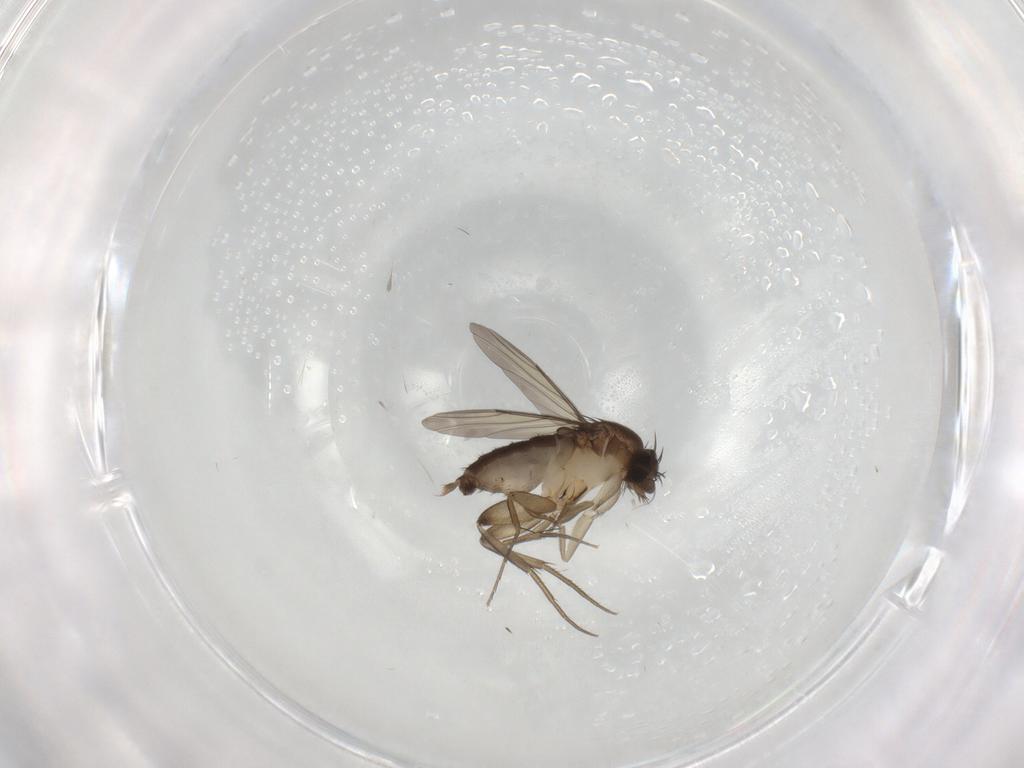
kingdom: Animalia
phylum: Arthropoda
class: Insecta
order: Diptera
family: Phoridae
